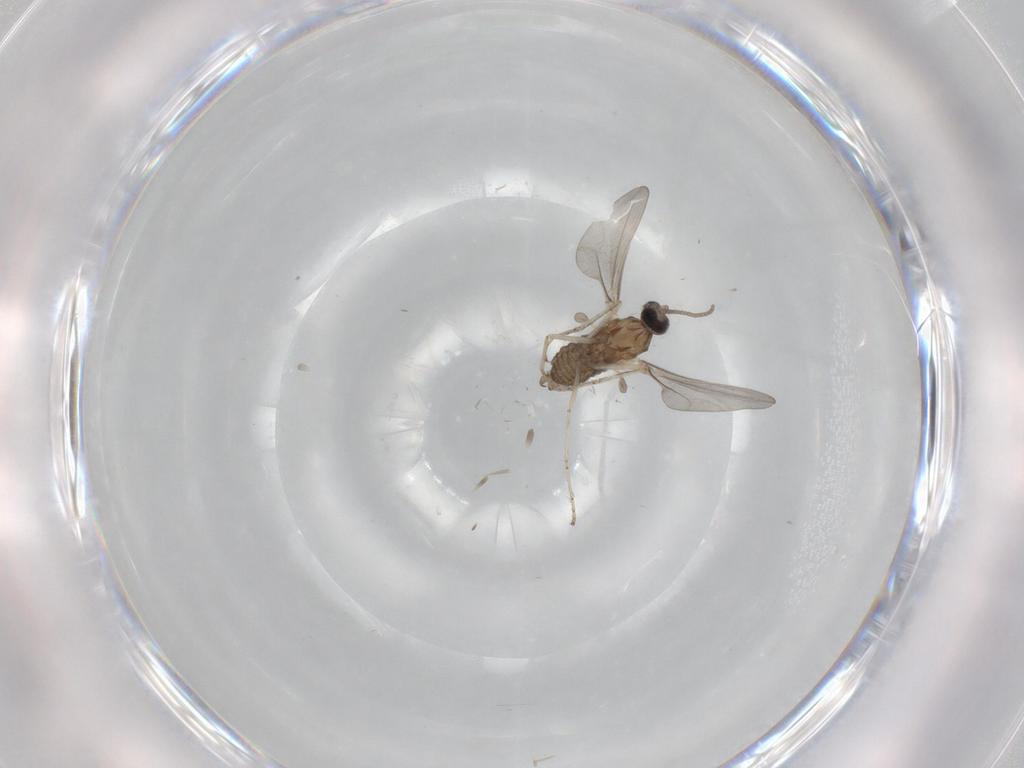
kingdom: Animalia
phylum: Arthropoda
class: Insecta
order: Diptera
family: Cecidomyiidae
